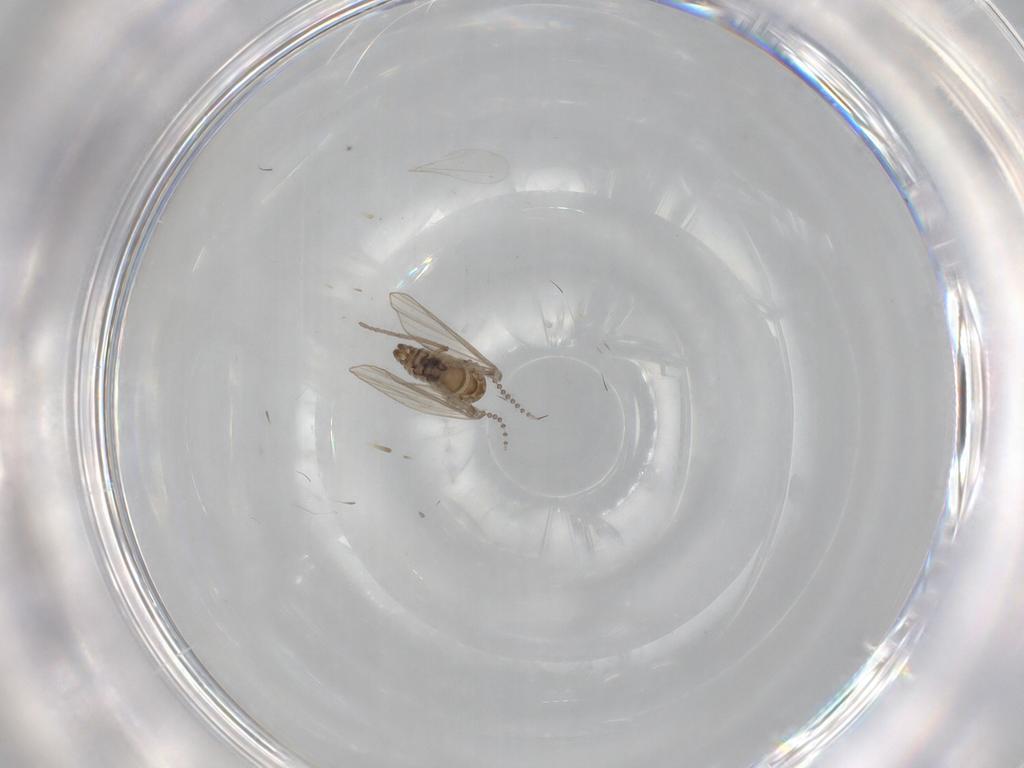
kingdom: Animalia
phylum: Arthropoda
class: Insecta
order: Diptera
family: Psychodidae
